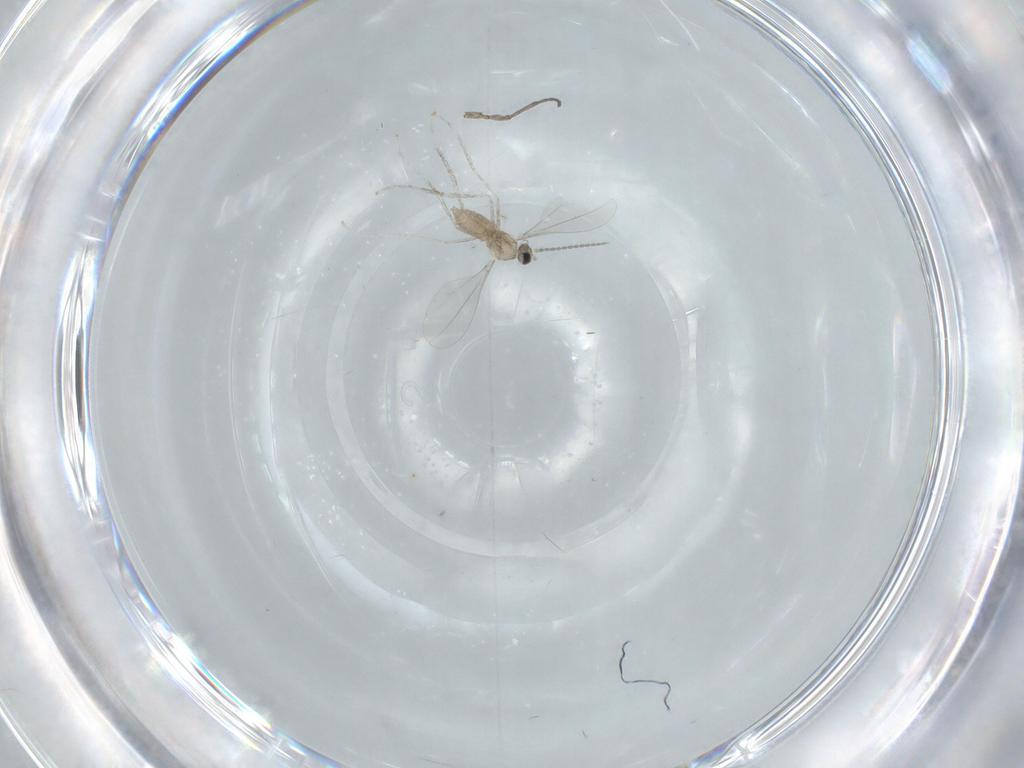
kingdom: Animalia
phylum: Arthropoda
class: Insecta
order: Diptera
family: Sciaridae
